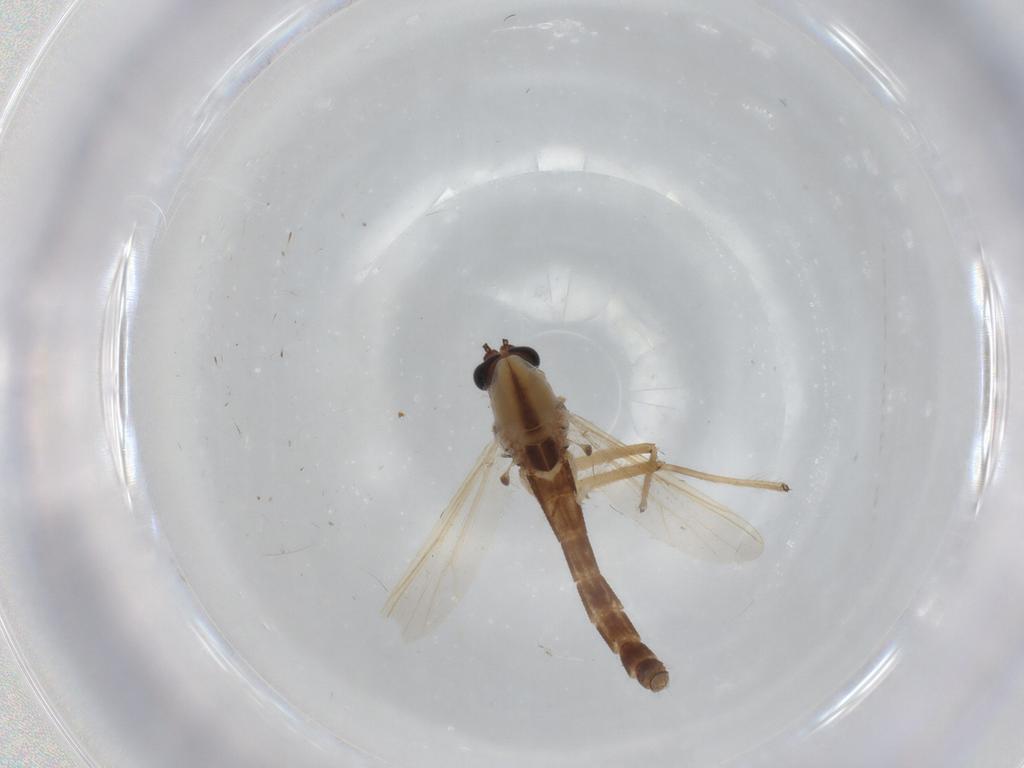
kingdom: Animalia
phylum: Arthropoda
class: Insecta
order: Diptera
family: Chironomidae
